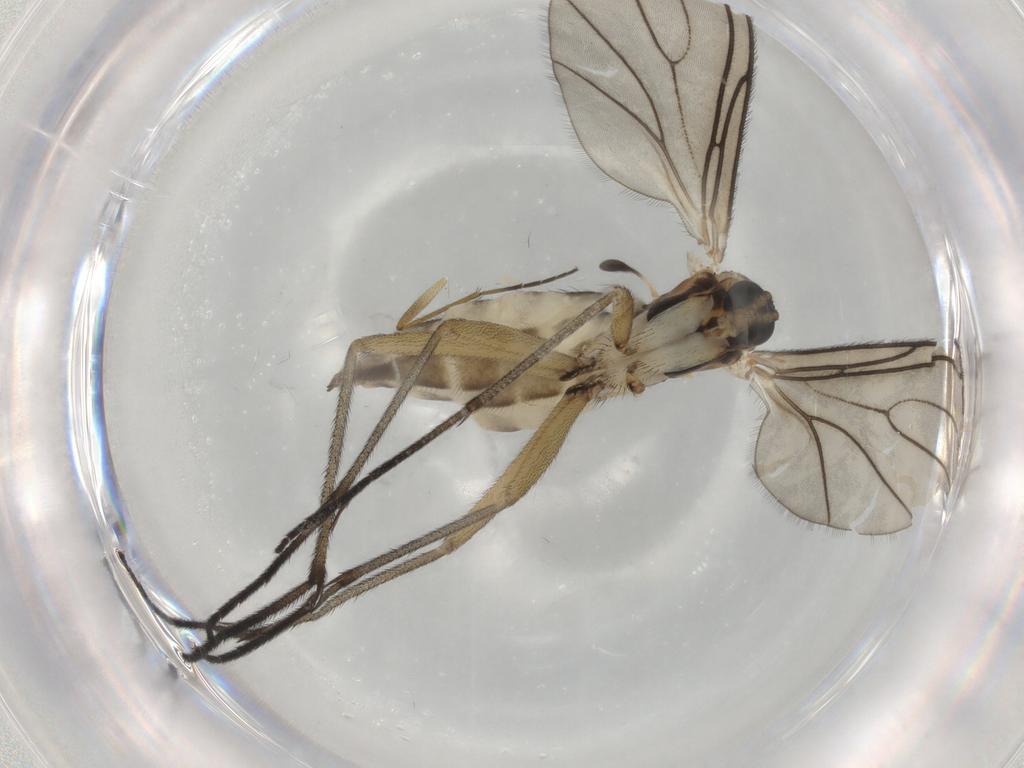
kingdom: Animalia
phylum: Arthropoda
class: Insecta
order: Diptera
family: Sciaridae
